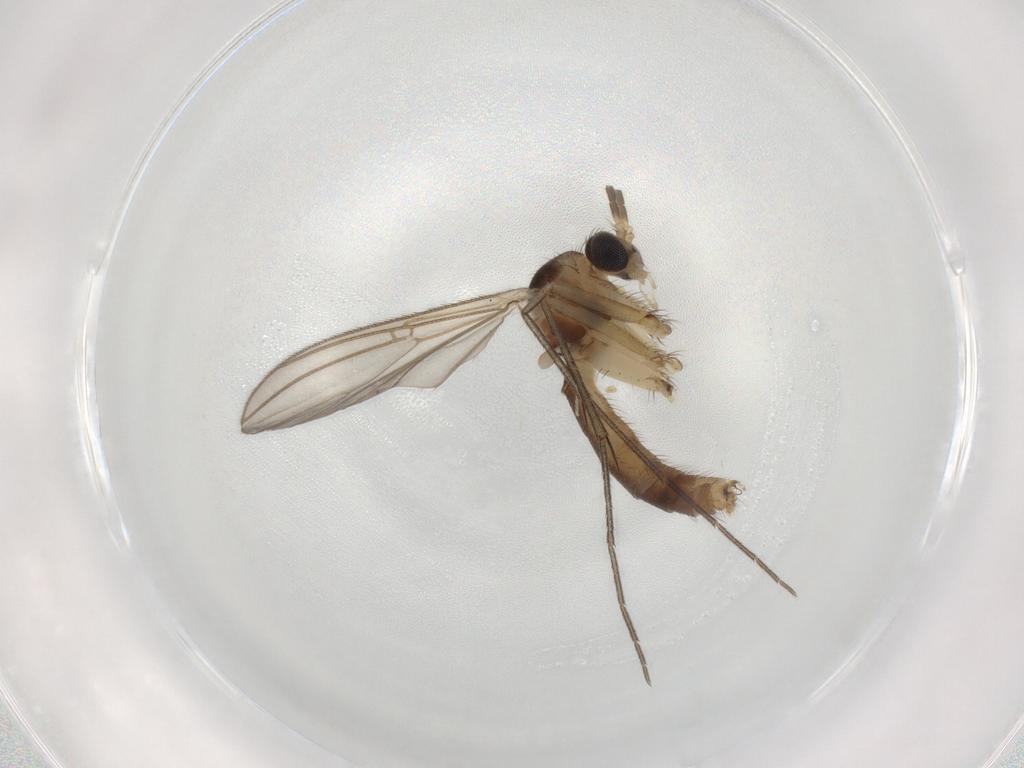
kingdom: Animalia
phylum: Arthropoda
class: Insecta
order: Diptera
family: Mycetophilidae
